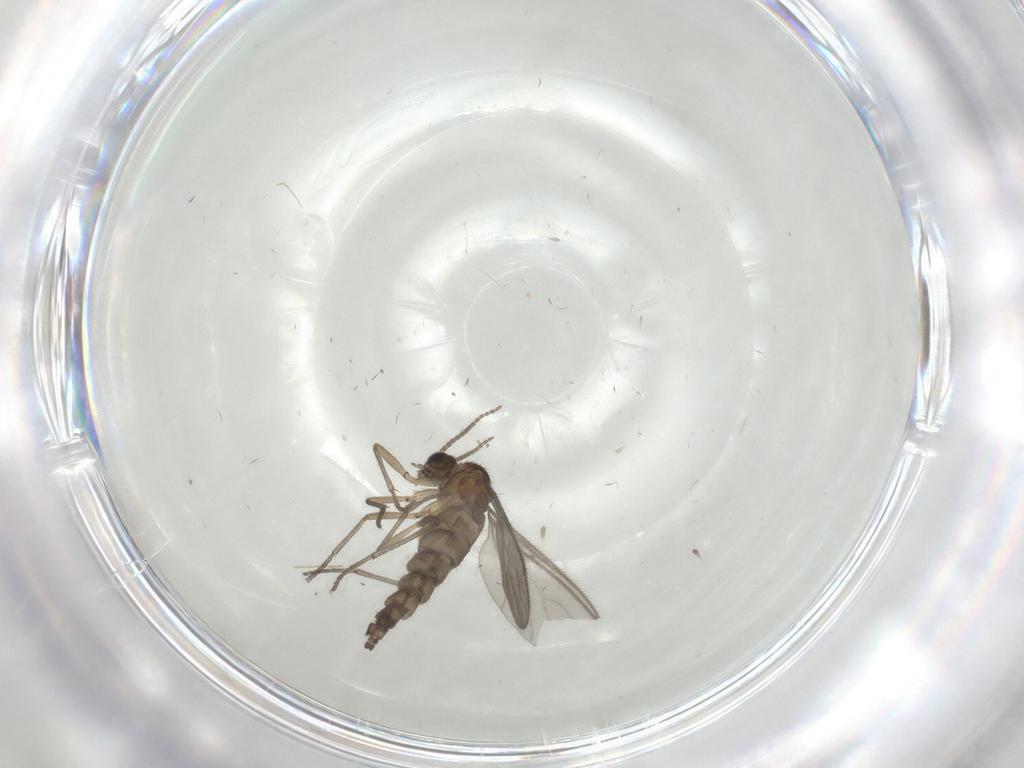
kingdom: Animalia
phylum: Arthropoda
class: Insecta
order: Diptera
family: Sciaridae
